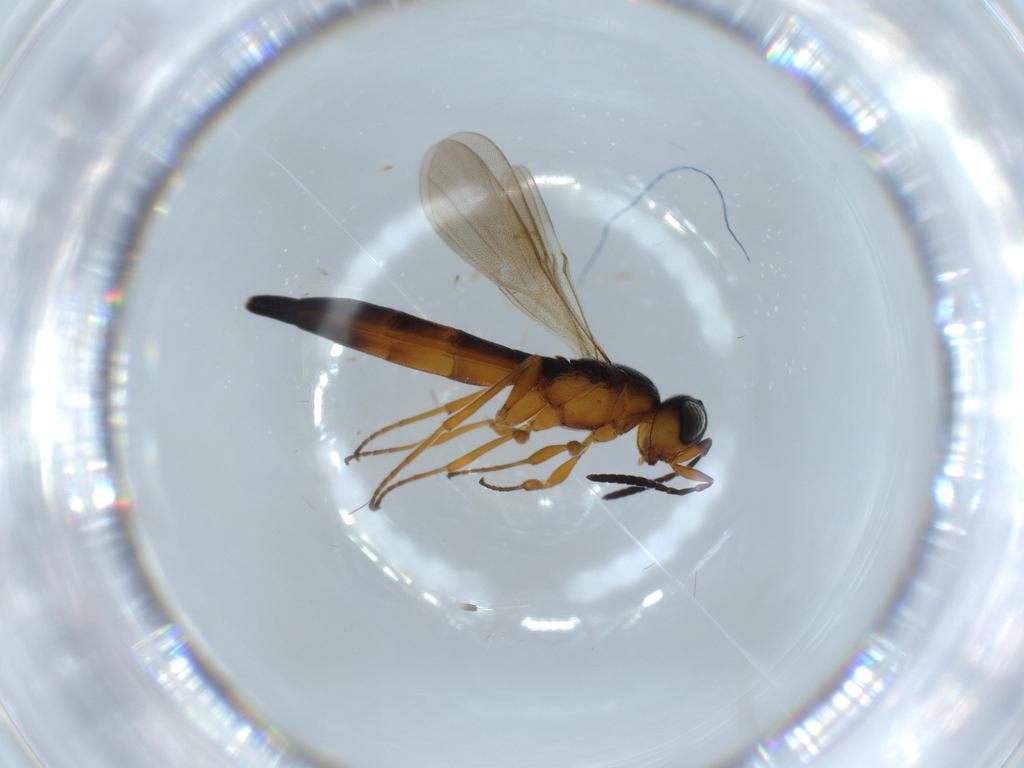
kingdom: Animalia
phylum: Arthropoda
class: Insecta
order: Hymenoptera
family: Scelionidae
